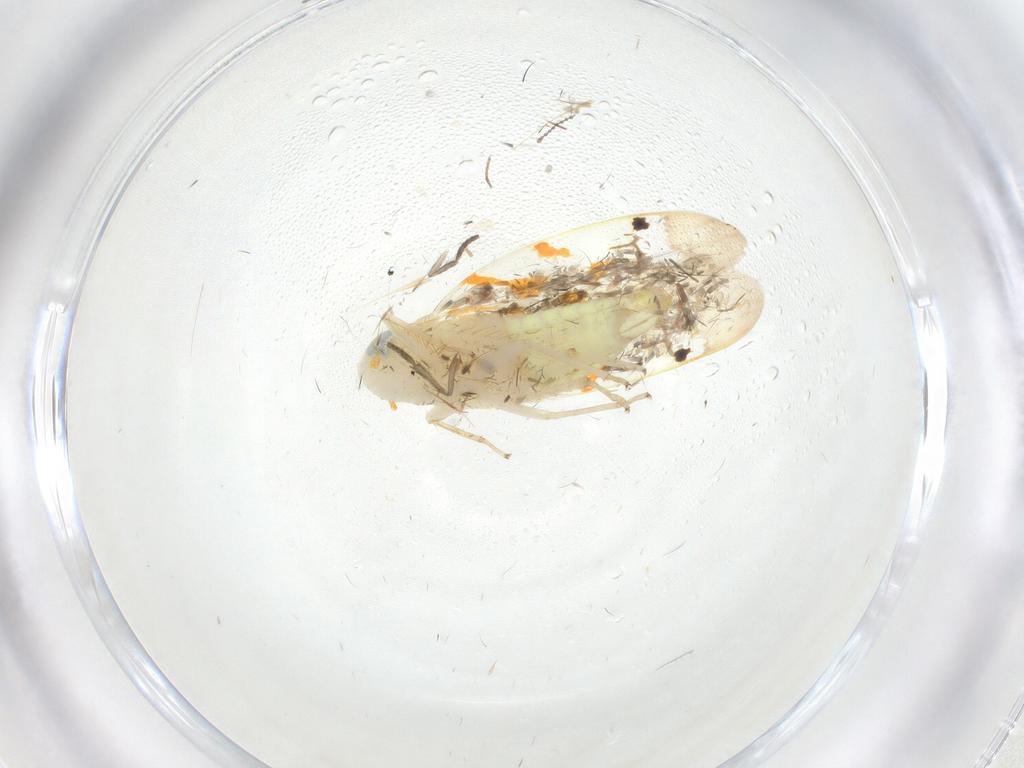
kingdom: Animalia
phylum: Arthropoda
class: Insecta
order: Hemiptera
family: Cicadellidae
